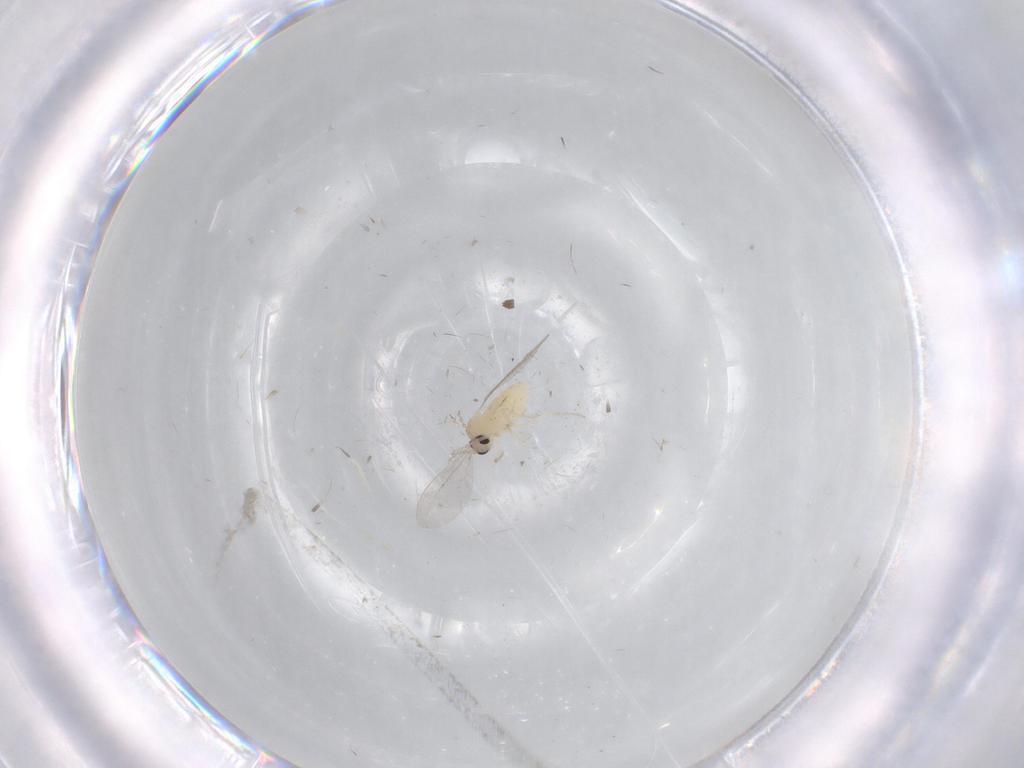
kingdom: Animalia
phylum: Arthropoda
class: Insecta
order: Diptera
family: Cecidomyiidae
